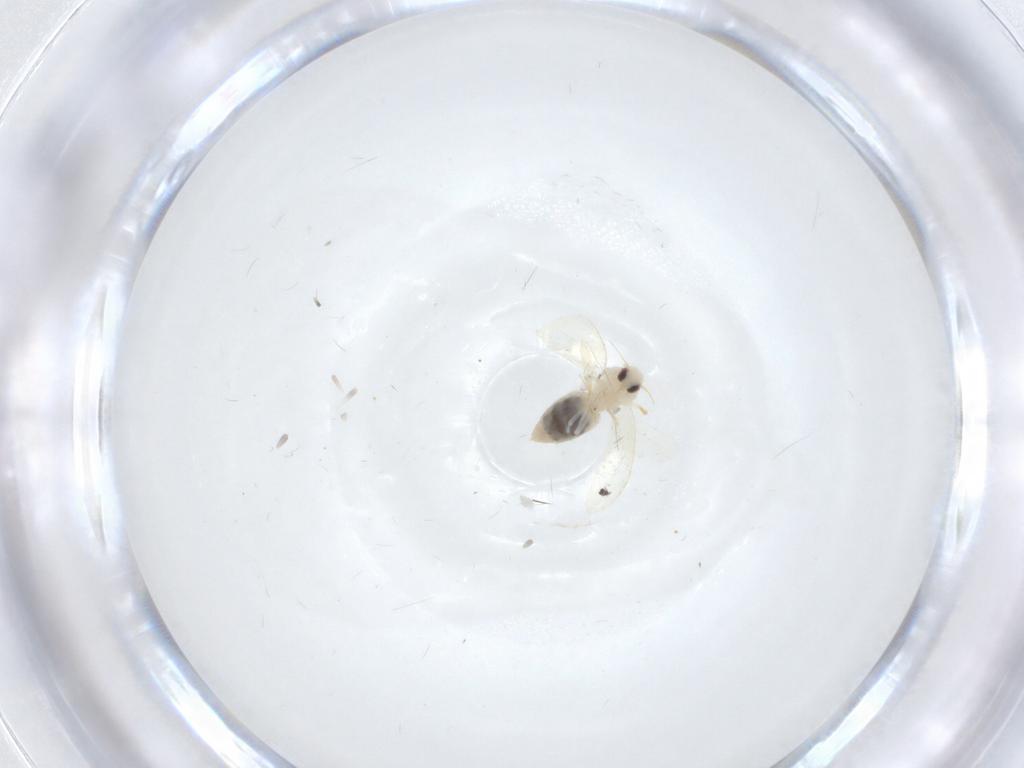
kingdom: Animalia
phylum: Arthropoda
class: Insecta
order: Hemiptera
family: Aleyrodidae
